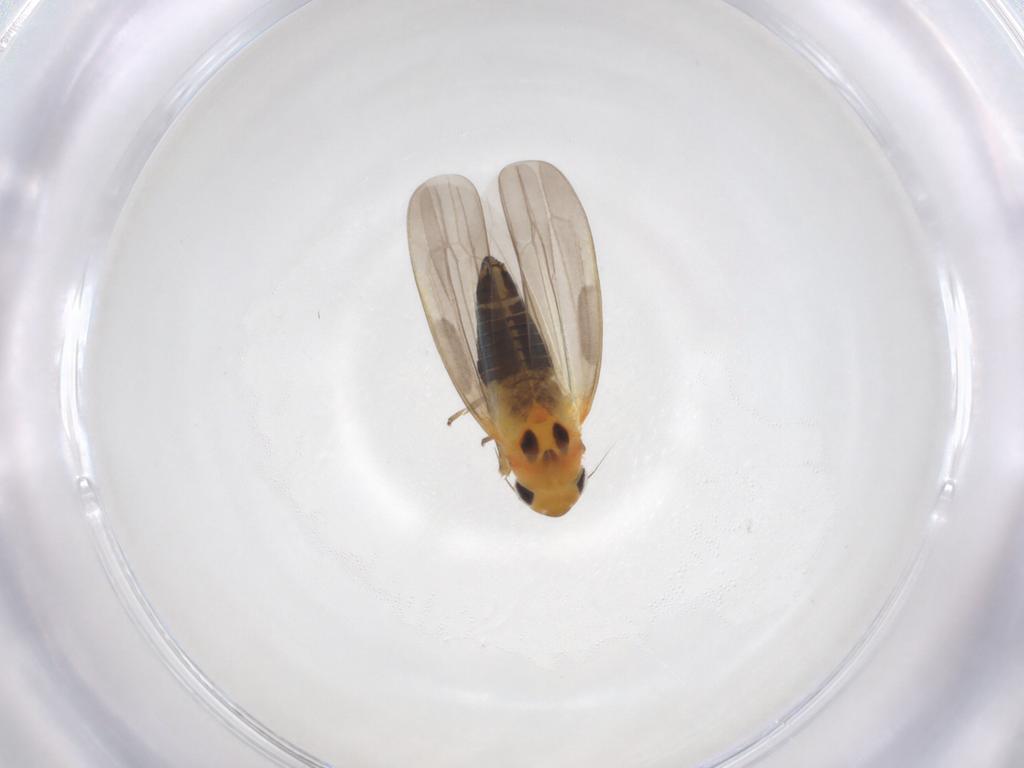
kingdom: Animalia
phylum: Arthropoda
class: Insecta
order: Hemiptera
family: Cicadellidae
